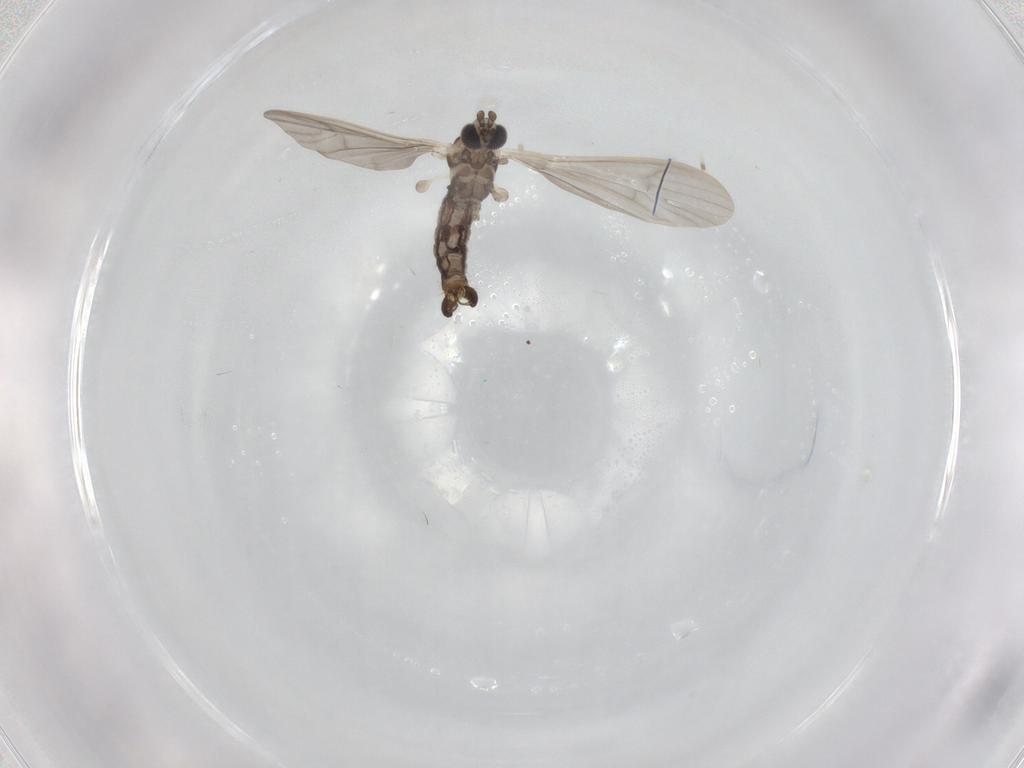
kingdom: Animalia
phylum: Arthropoda
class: Insecta
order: Diptera
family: Limoniidae
